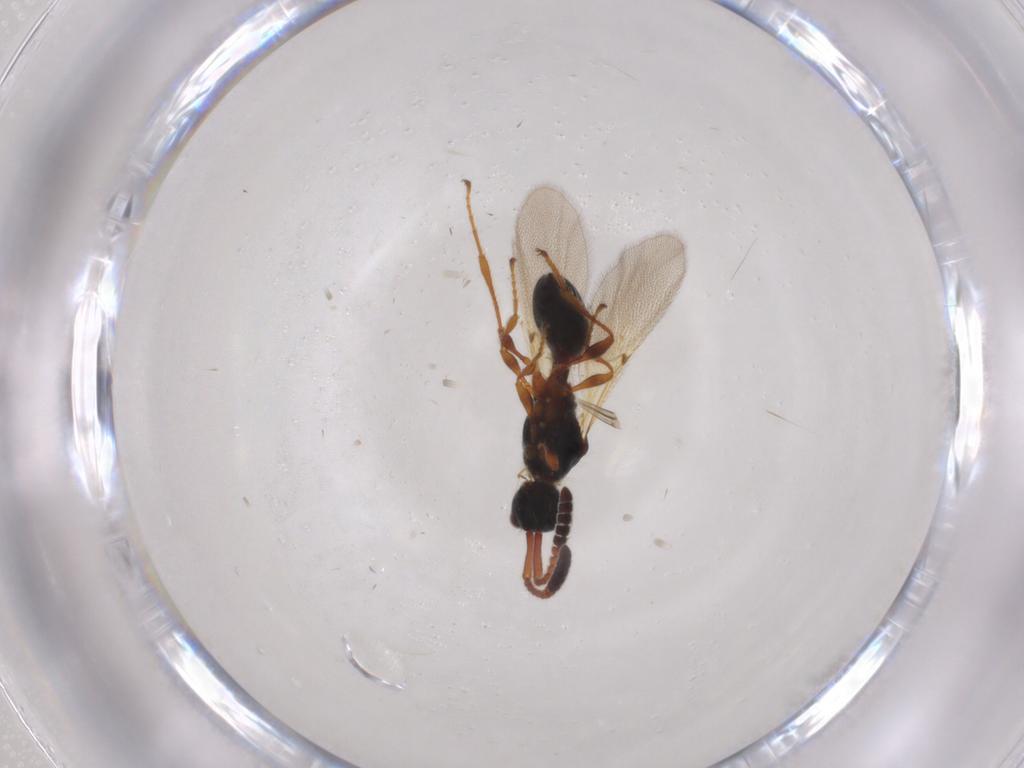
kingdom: Animalia
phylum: Arthropoda
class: Insecta
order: Hymenoptera
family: Diapriidae
